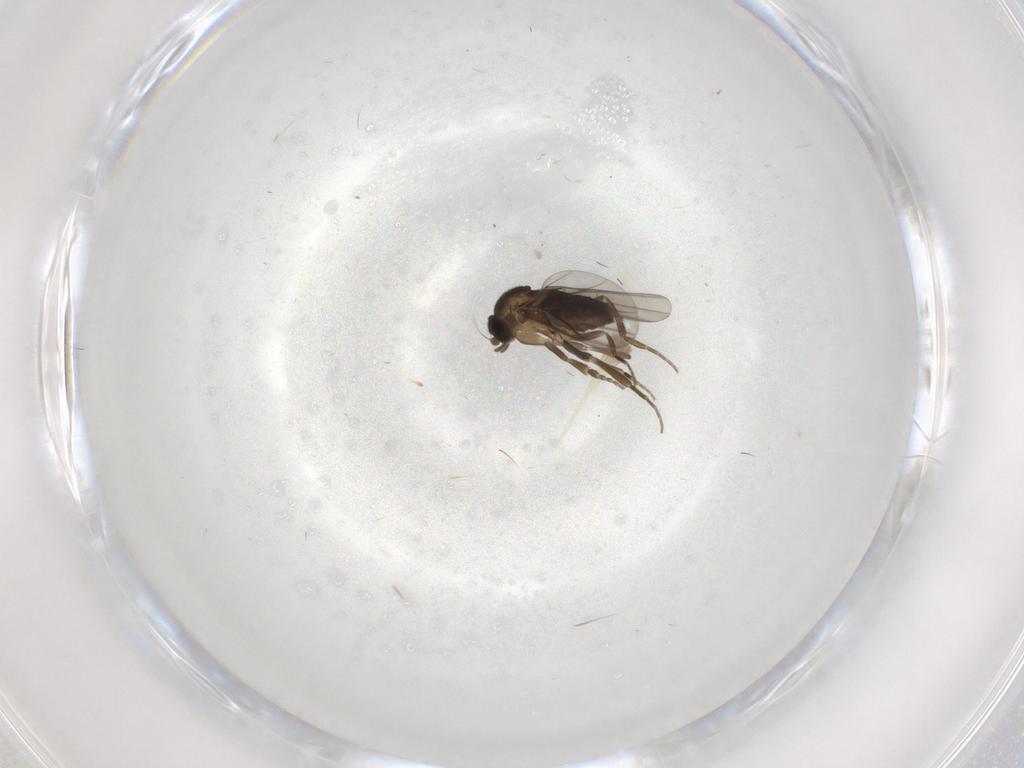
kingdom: Animalia
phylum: Arthropoda
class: Insecta
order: Diptera
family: Phoridae
